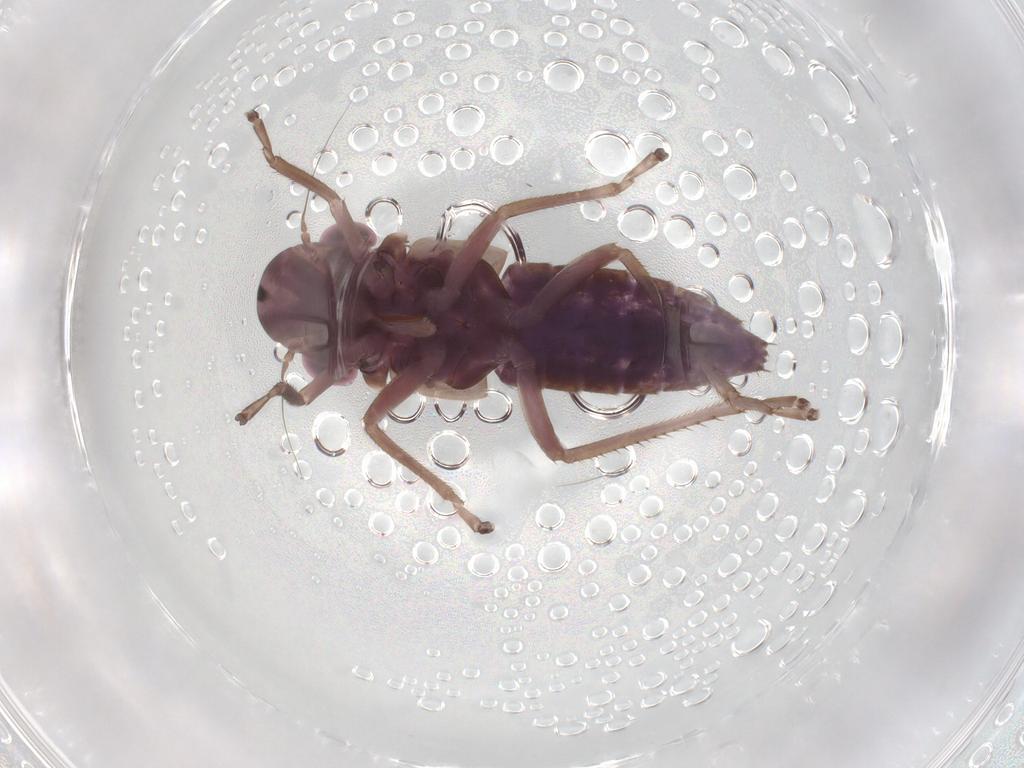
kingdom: Animalia
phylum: Arthropoda
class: Insecta
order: Hemiptera
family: Cicadellidae
